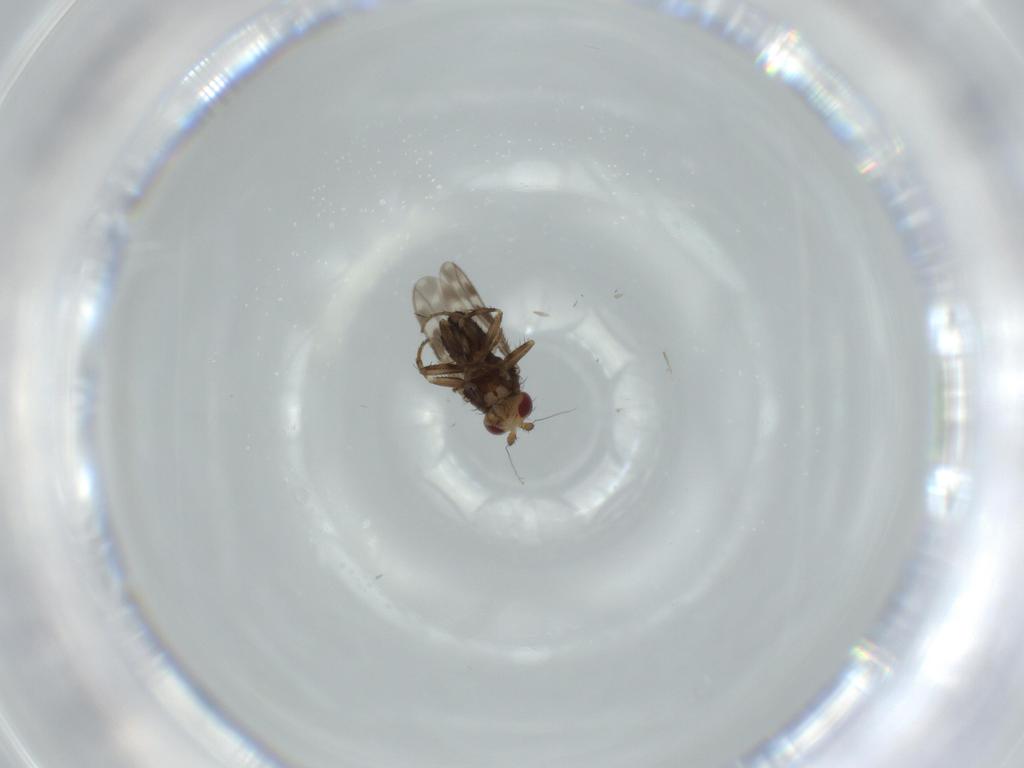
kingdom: Animalia
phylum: Arthropoda
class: Insecta
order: Diptera
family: Sphaeroceridae
